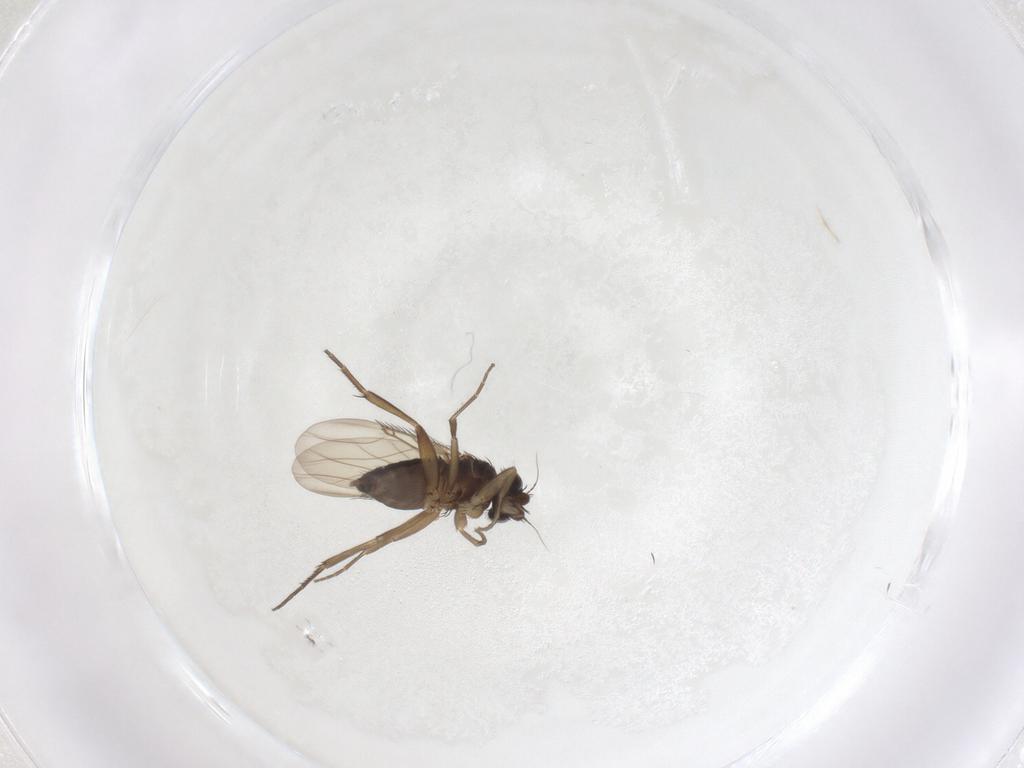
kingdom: Animalia
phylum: Arthropoda
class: Insecta
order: Diptera
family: Phoridae
